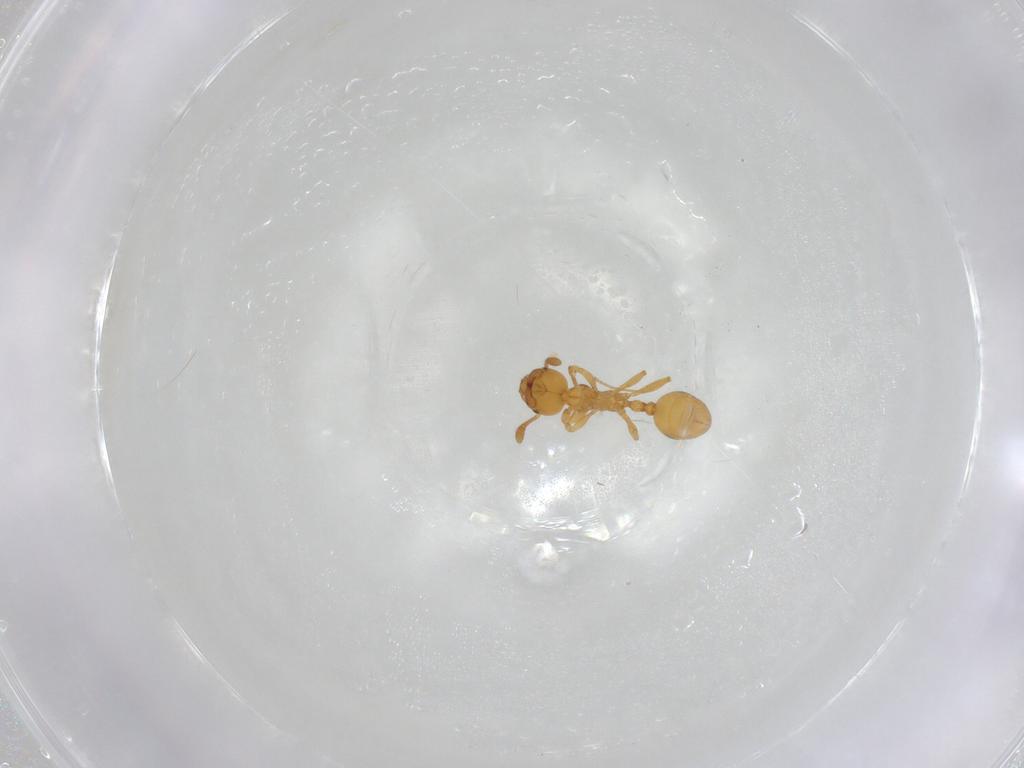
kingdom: Animalia
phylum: Arthropoda
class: Insecta
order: Hymenoptera
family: Formicidae
